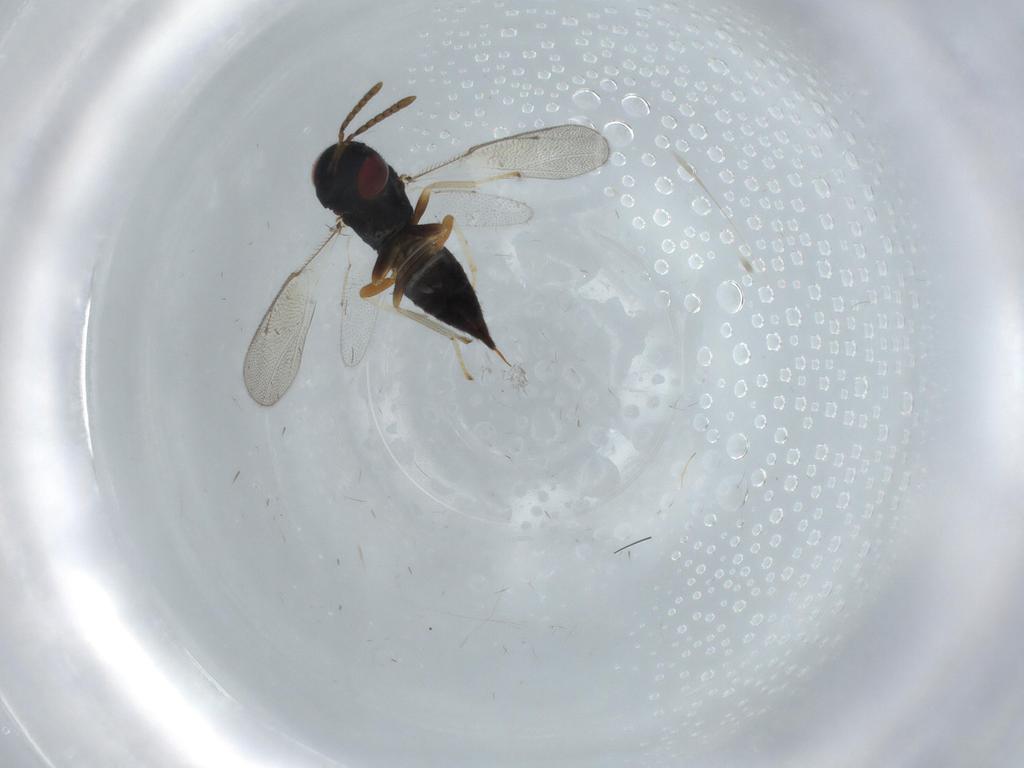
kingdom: Animalia
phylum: Arthropoda
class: Insecta
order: Hymenoptera
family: Pteromalidae
